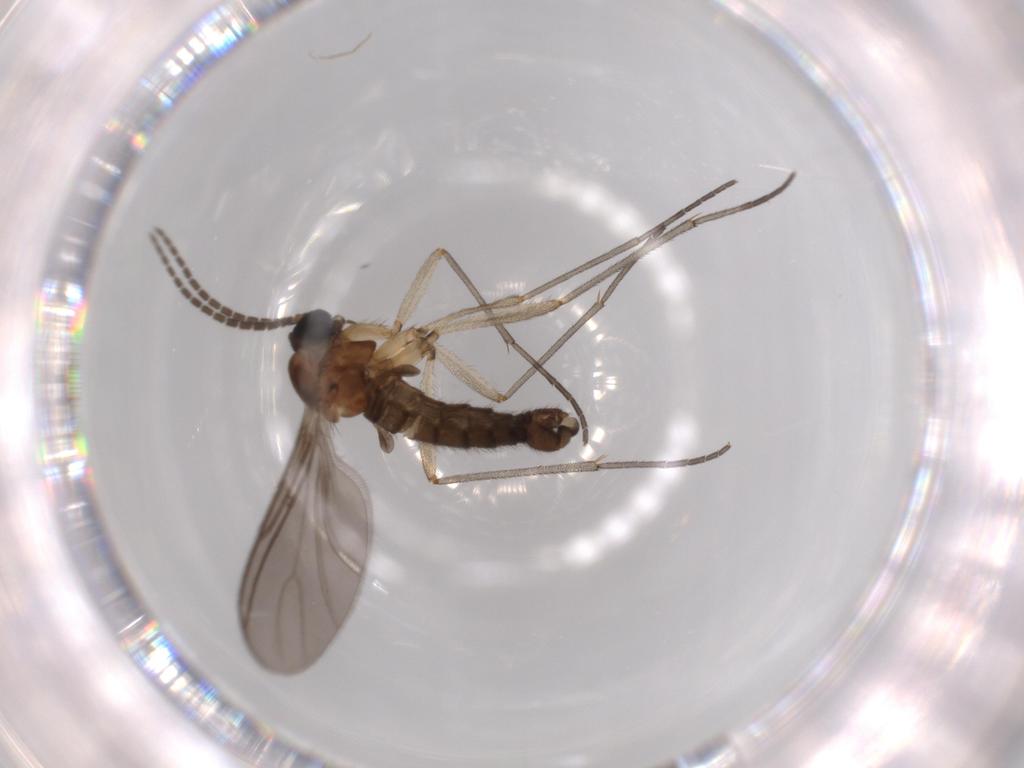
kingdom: Animalia
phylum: Arthropoda
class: Insecta
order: Diptera
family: Sciaridae
